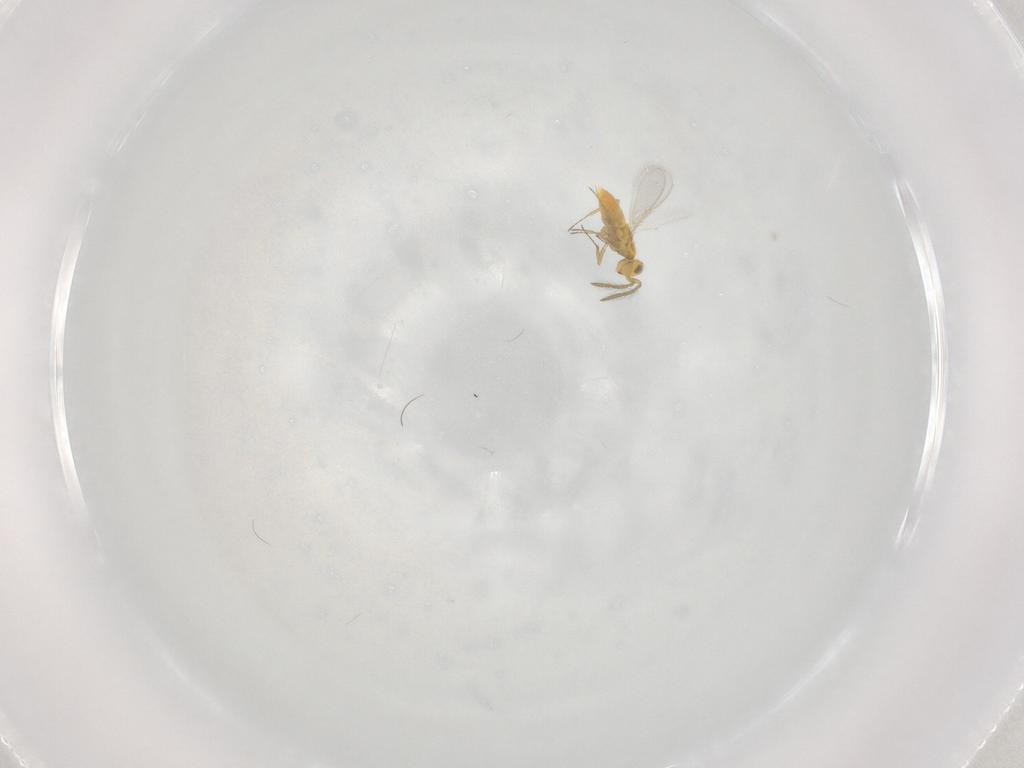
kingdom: Animalia
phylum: Arthropoda
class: Insecta
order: Hymenoptera
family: Aphelinidae
